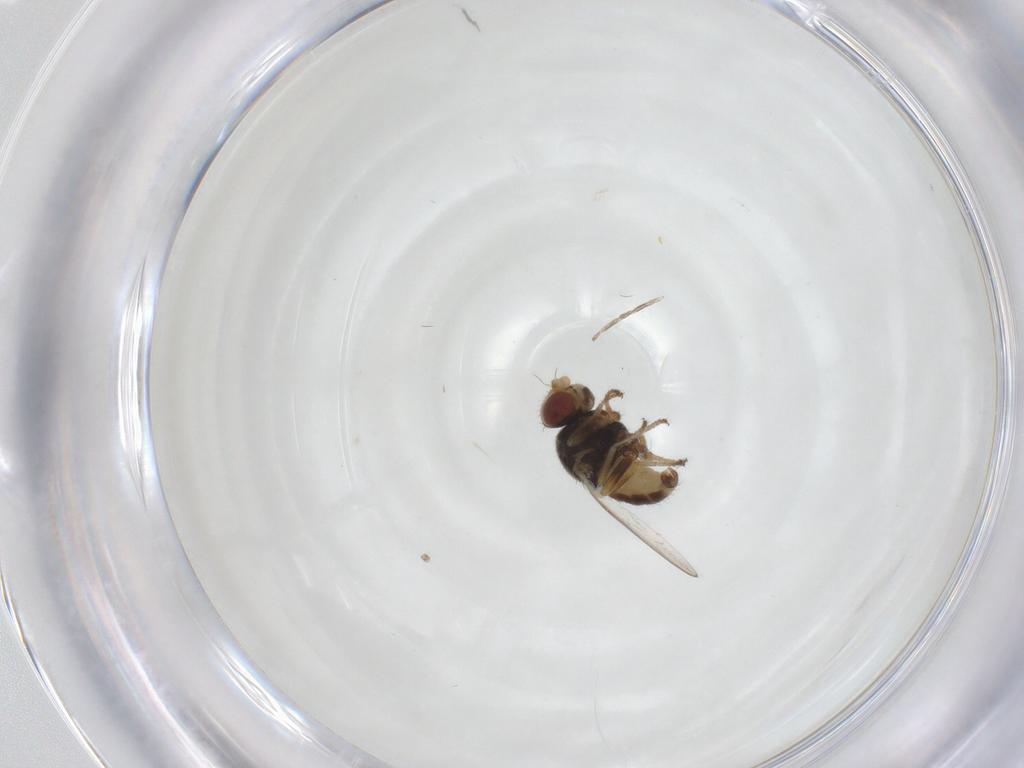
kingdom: Animalia
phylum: Arthropoda
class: Insecta
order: Diptera
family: Chloropidae
